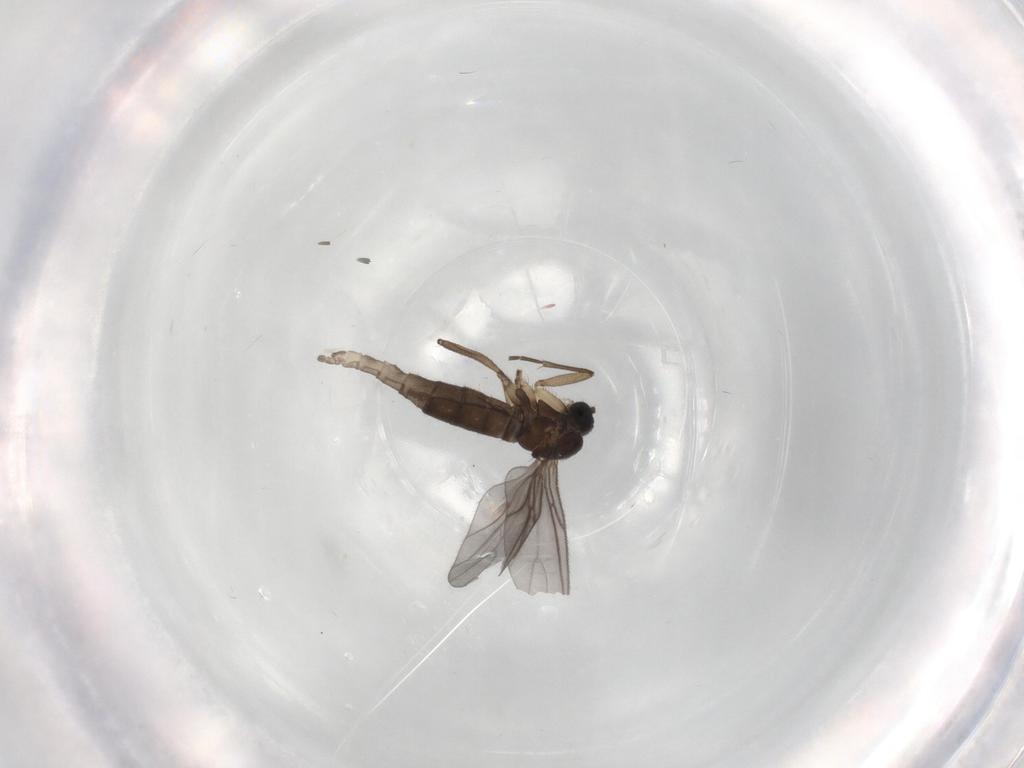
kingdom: Animalia
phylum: Arthropoda
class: Insecta
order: Diptera
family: Sciaridae
